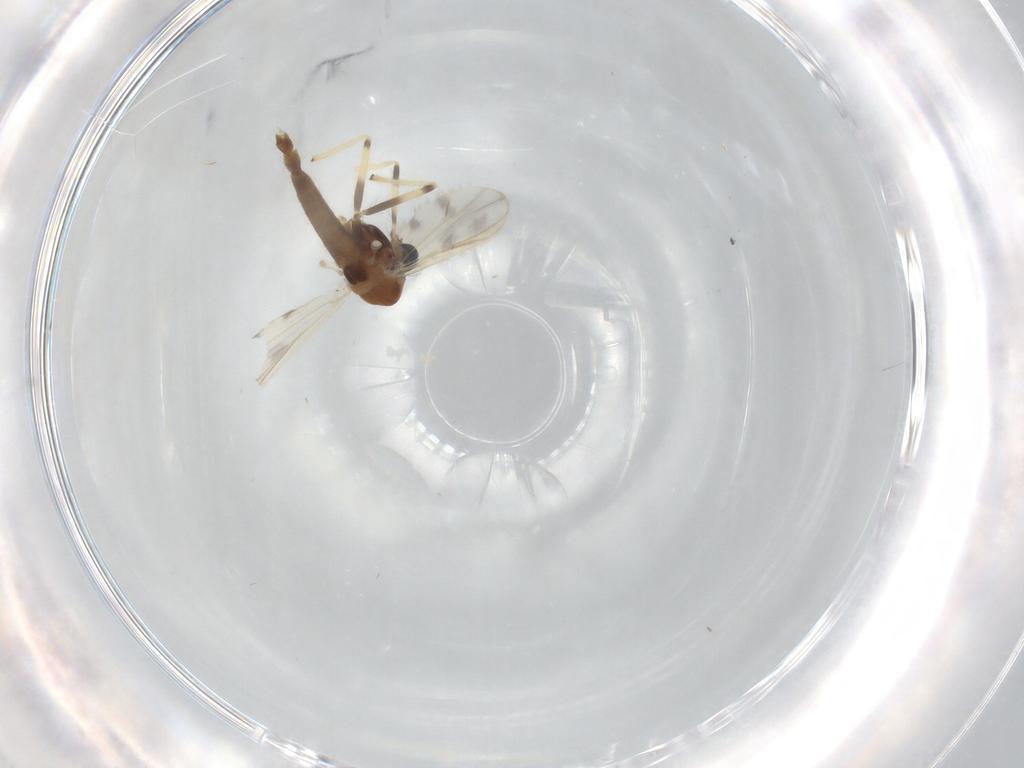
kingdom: Animalia
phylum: Arthropoda
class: Insecta
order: Diptera
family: Chironomidae
